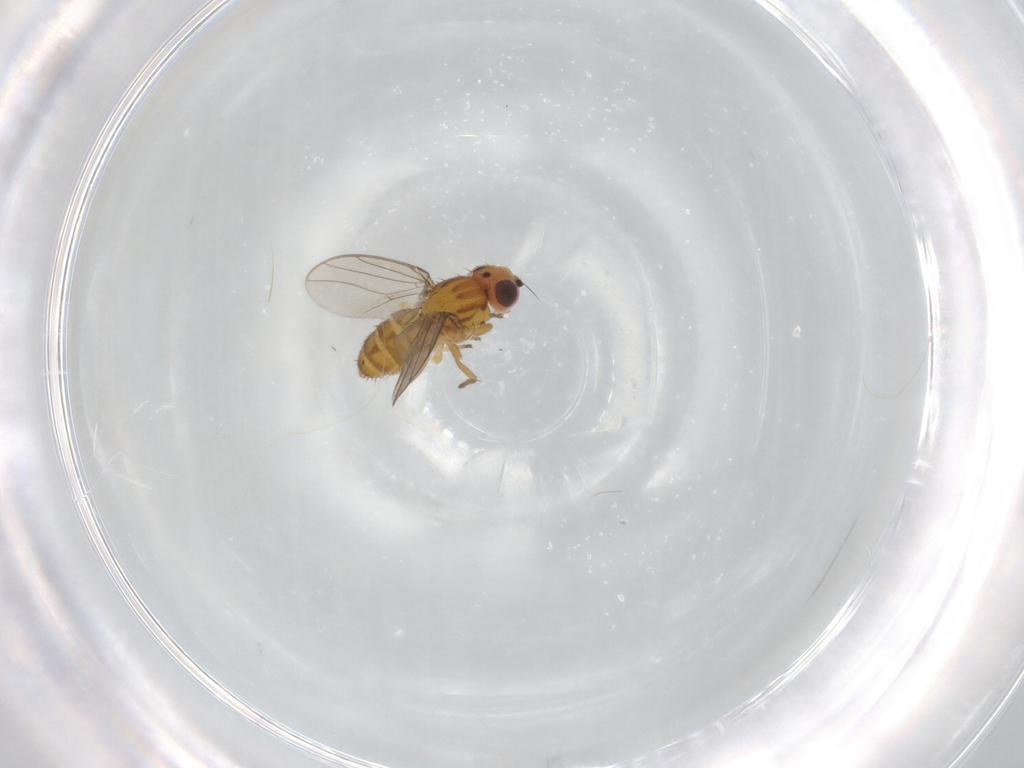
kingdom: Animalia
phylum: Arthropoda
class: Insecta
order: Diptera
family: Chloropidae
